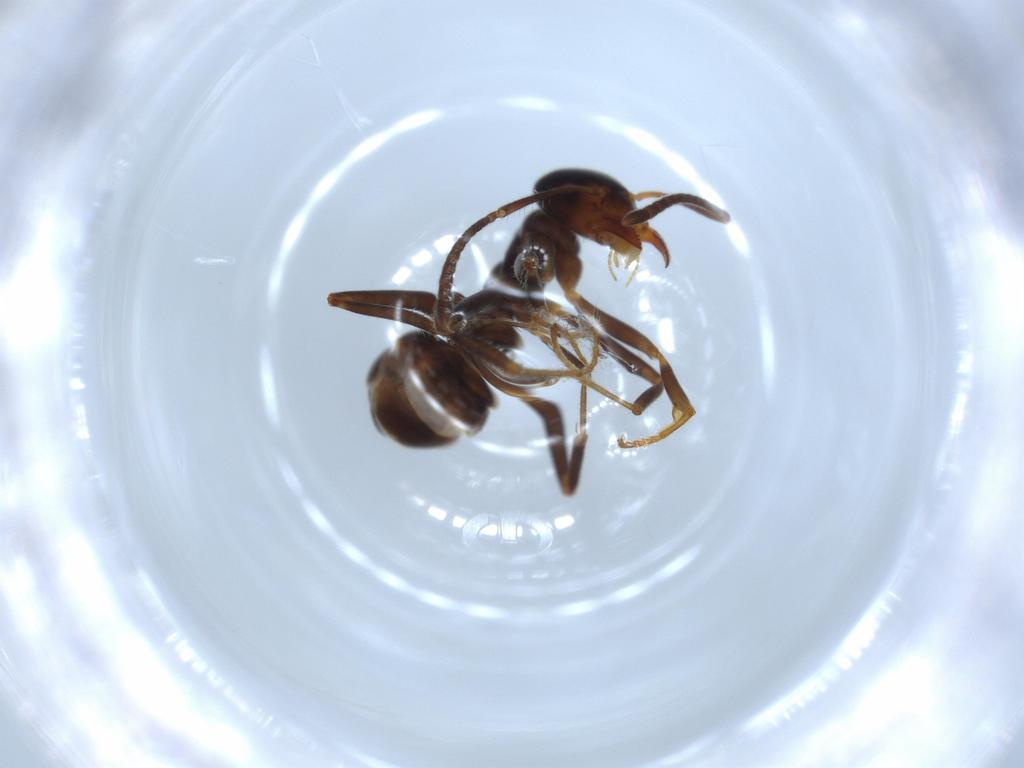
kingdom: Animalia
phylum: Arthropoda
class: Insecta
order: Hymenoptera
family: Formicidae
